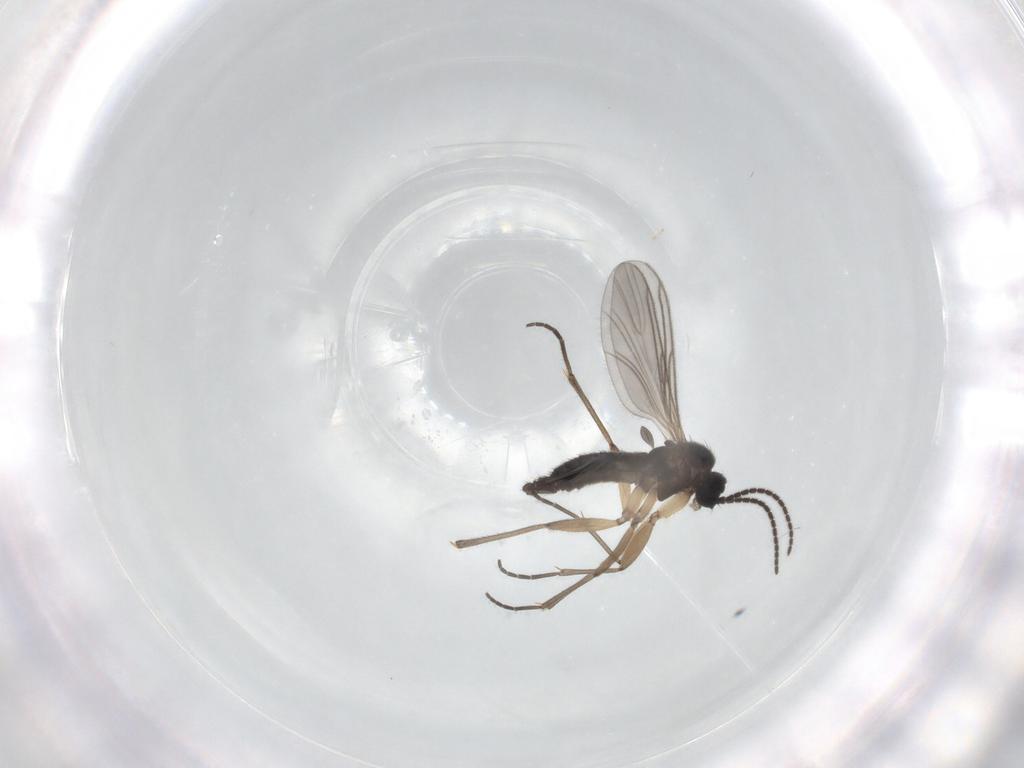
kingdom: Animalia
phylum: Arthropoda
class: Insecta
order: Diptera
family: Sciaridae
